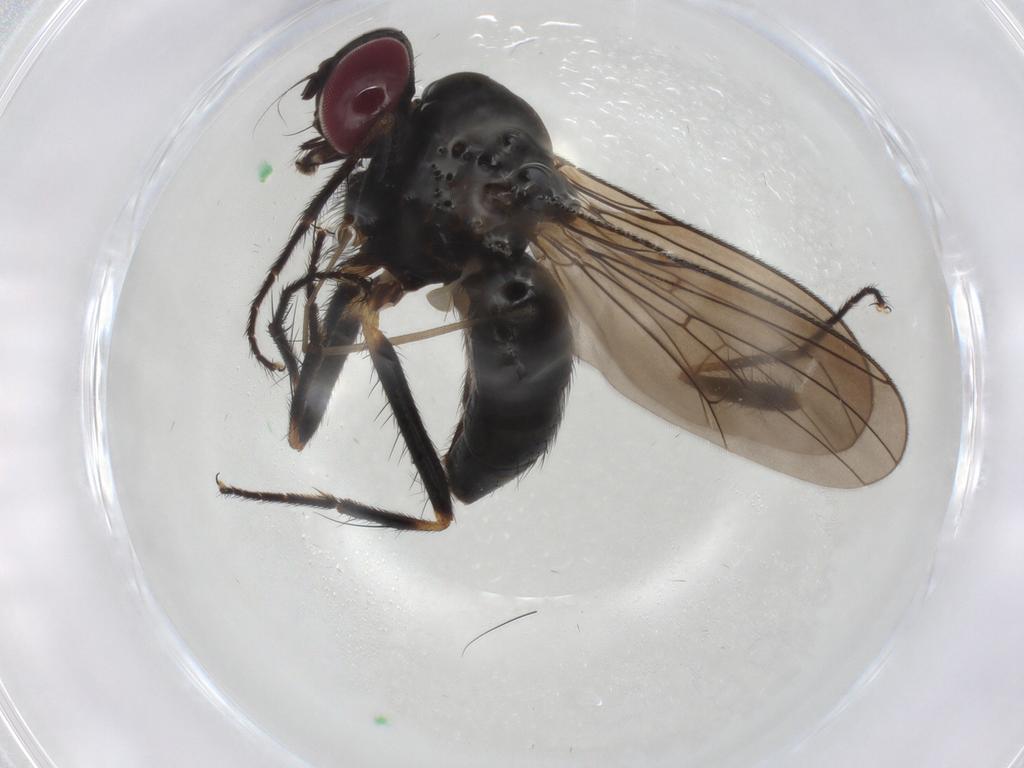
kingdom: Animalia
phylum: Arthropoda
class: Insecta
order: Diptera
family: Anthomyiidae
